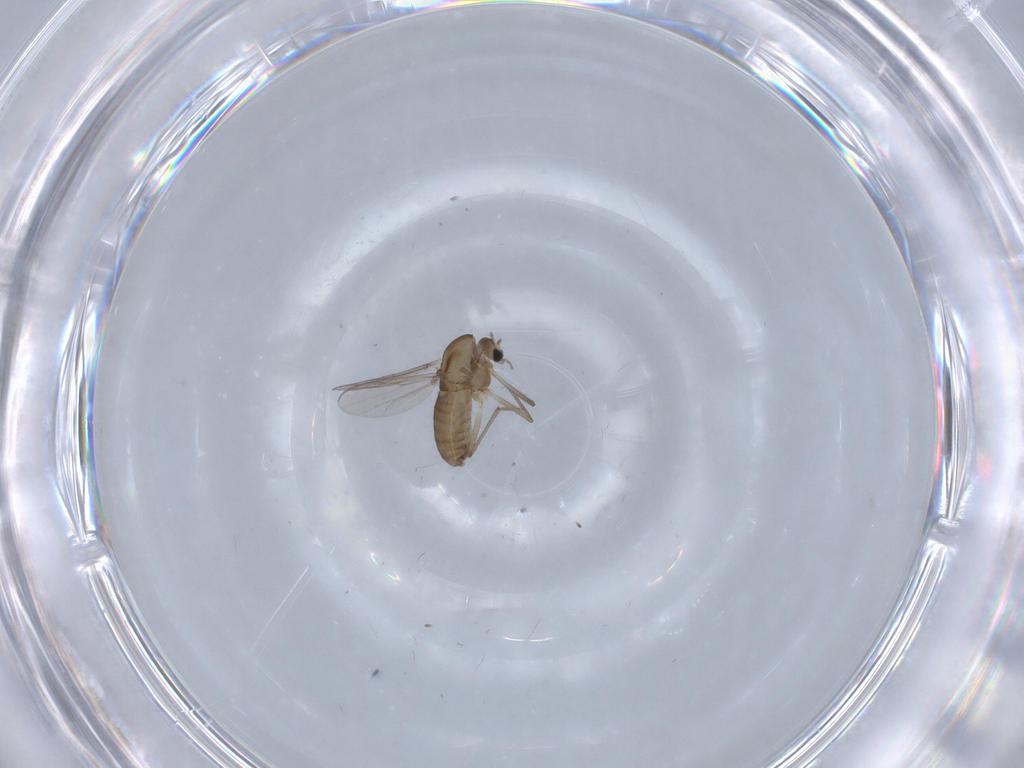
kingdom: Animalia
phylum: Arthropoda
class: Insecta
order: Diptera
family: Chironomidae
